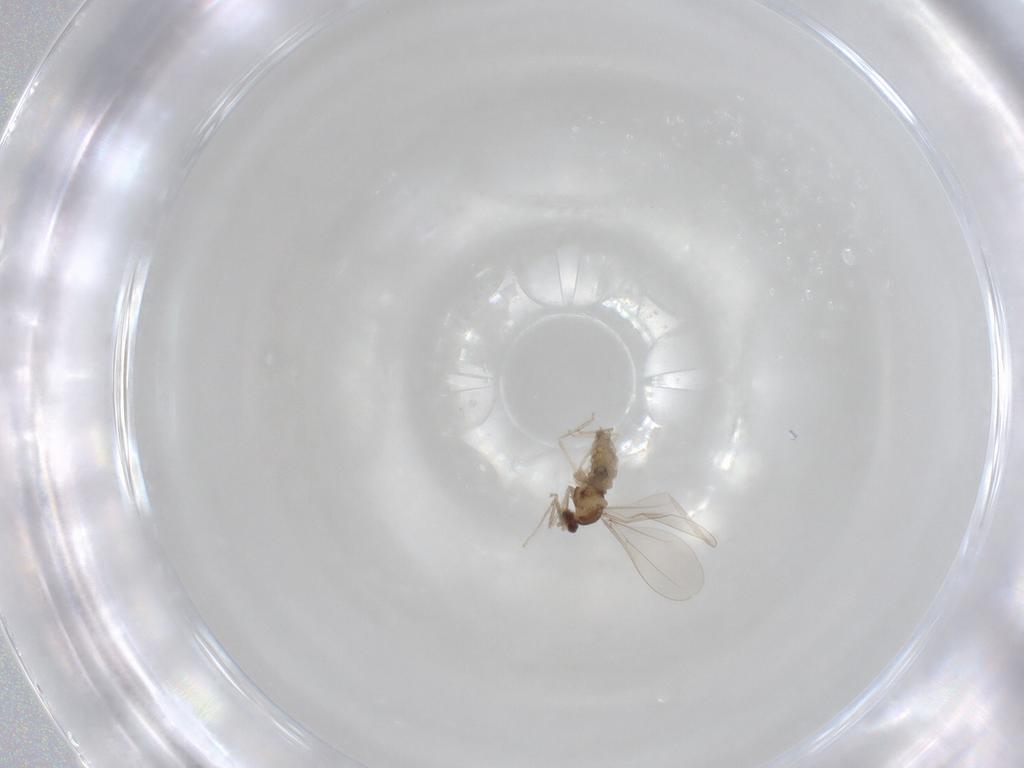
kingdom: Animalia
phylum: Arthropoda
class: Insecta
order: Diptera
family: Cecidomyiidae
